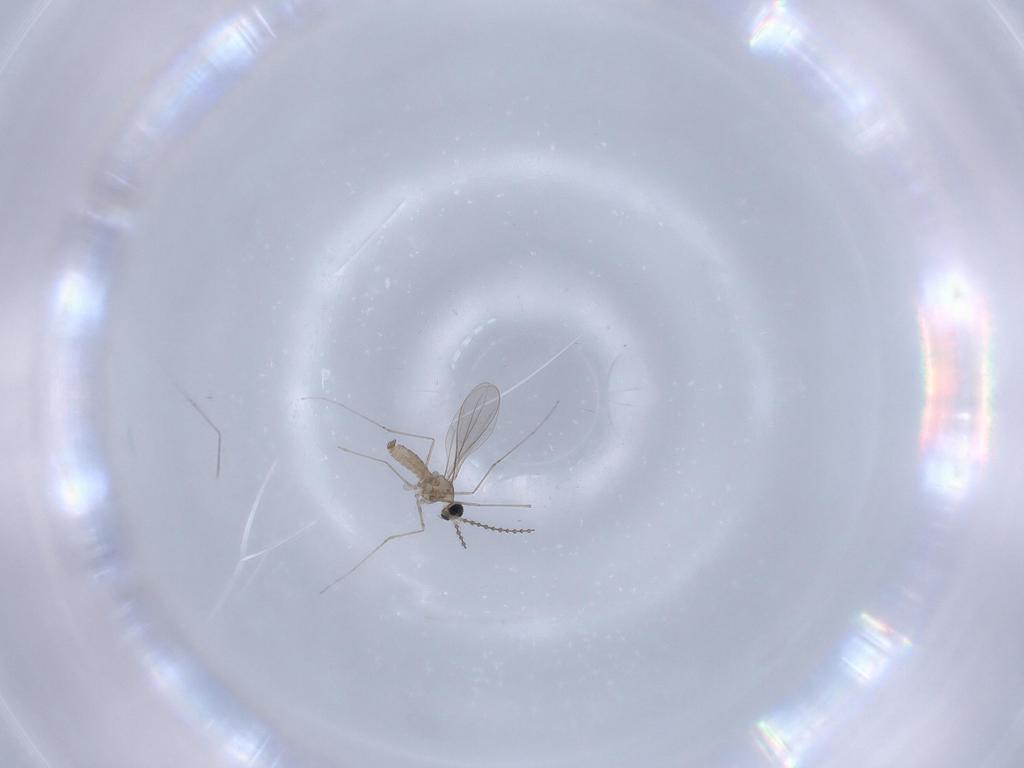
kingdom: Animalia
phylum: Arthropoda
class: Insecta
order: Diptera
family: Cecidomyiidae
